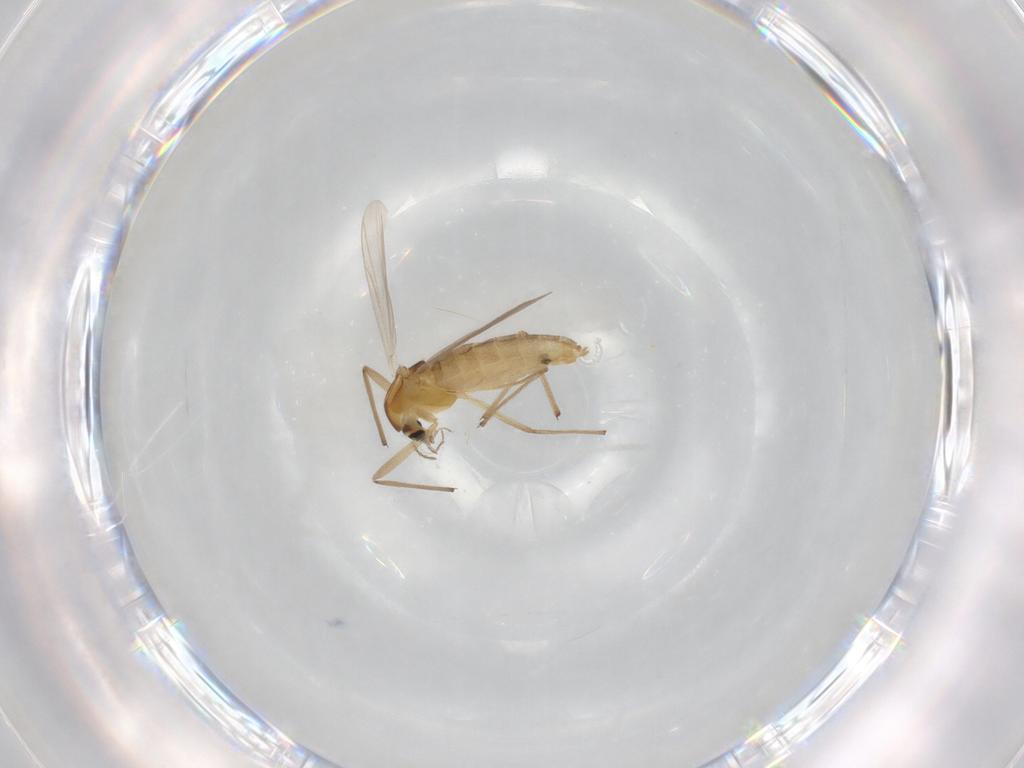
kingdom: Animalia
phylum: Arthropoda
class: Insecta
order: Diptera
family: Chironomidae
